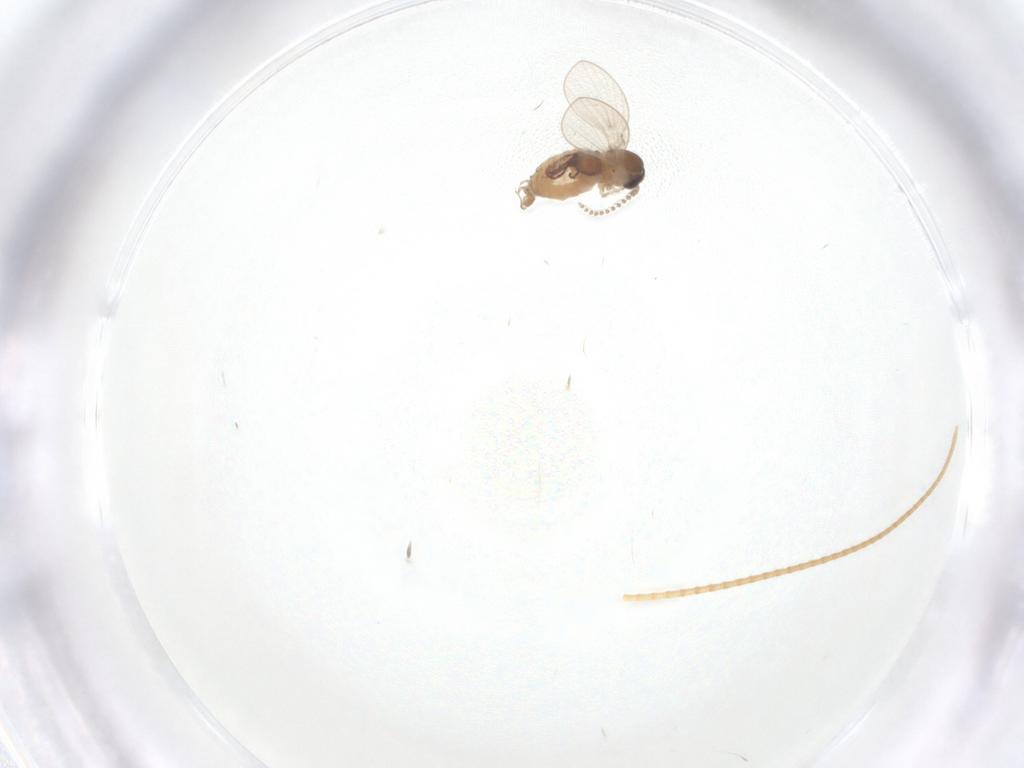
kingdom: Animalia
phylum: Arthropoda
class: Insecta
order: Diptera
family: Psychodidae
